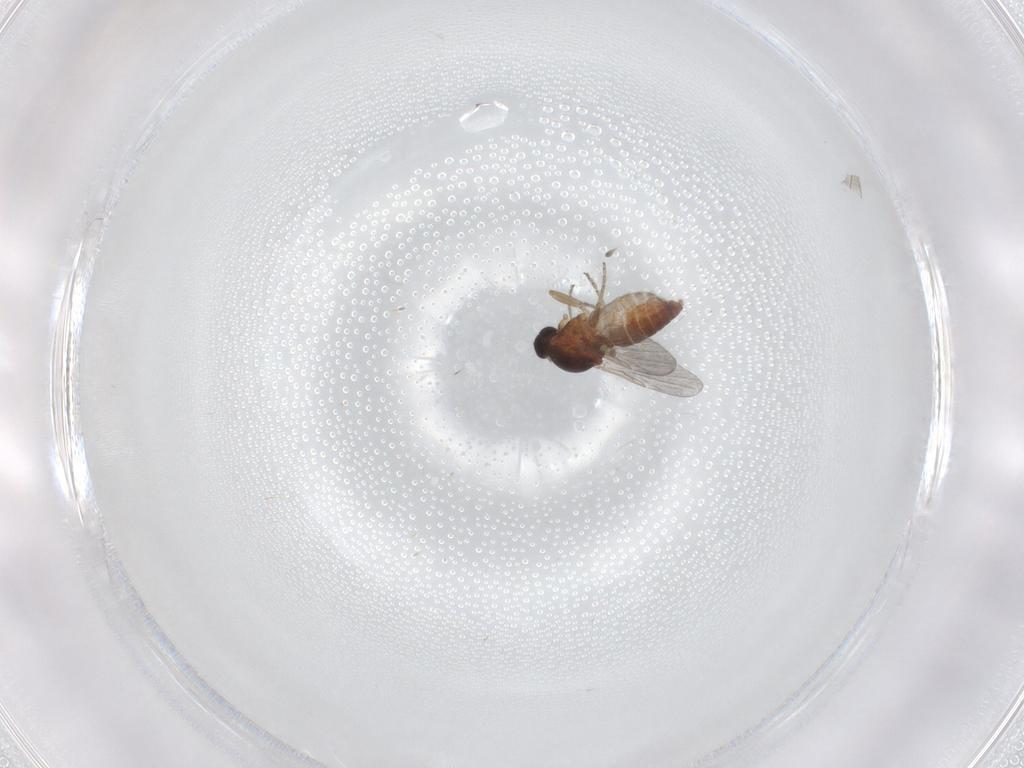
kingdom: Animalia
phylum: Arthropoda
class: Insecta
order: Diptera
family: Ceratopogonidae
